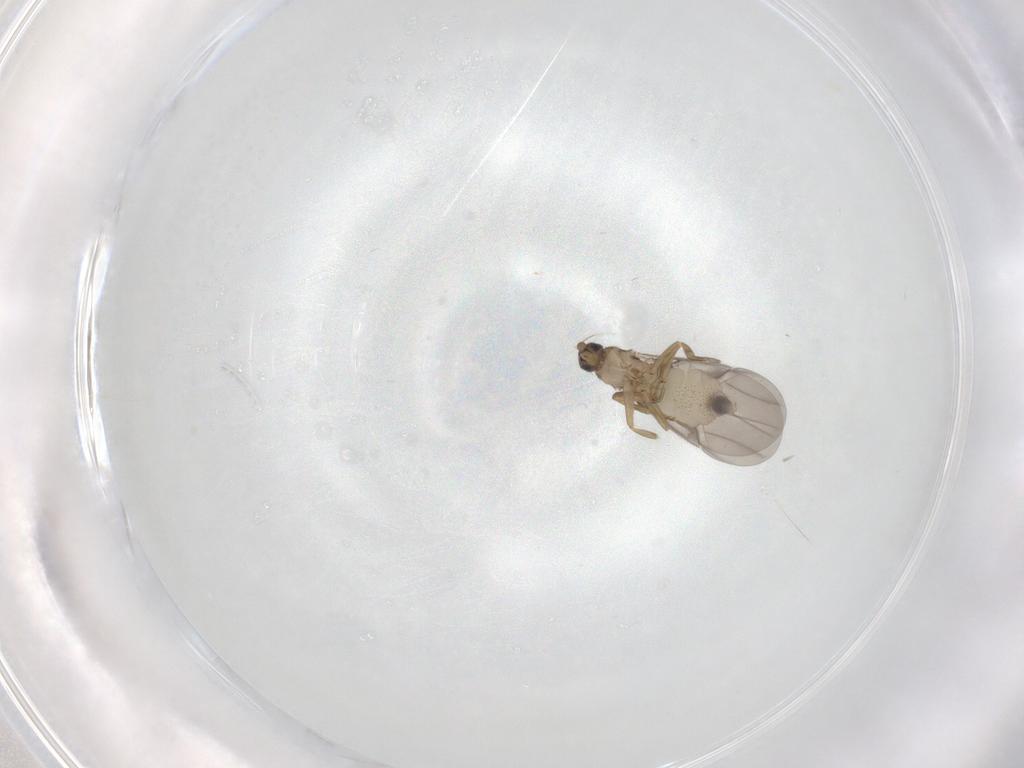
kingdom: Animalia
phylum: Arthropoda
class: Insecta
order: Diptera
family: Phoridae
